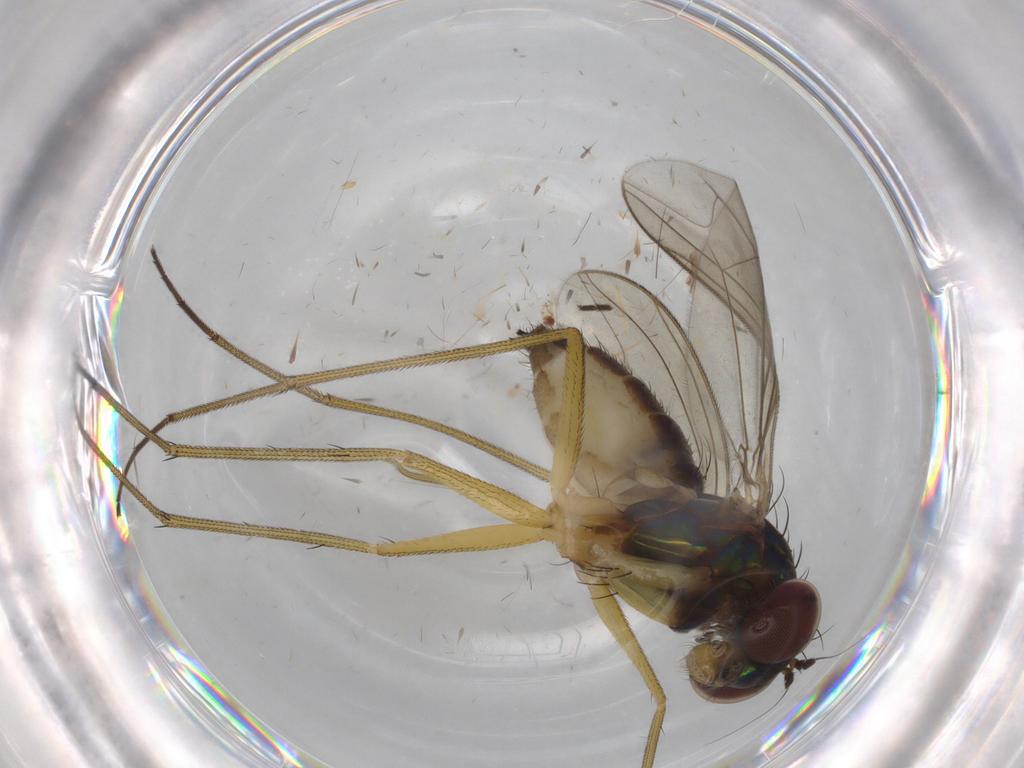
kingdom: Animalia
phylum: Arthropoda
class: Insecta
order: Diptera
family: Dolichopodidae
